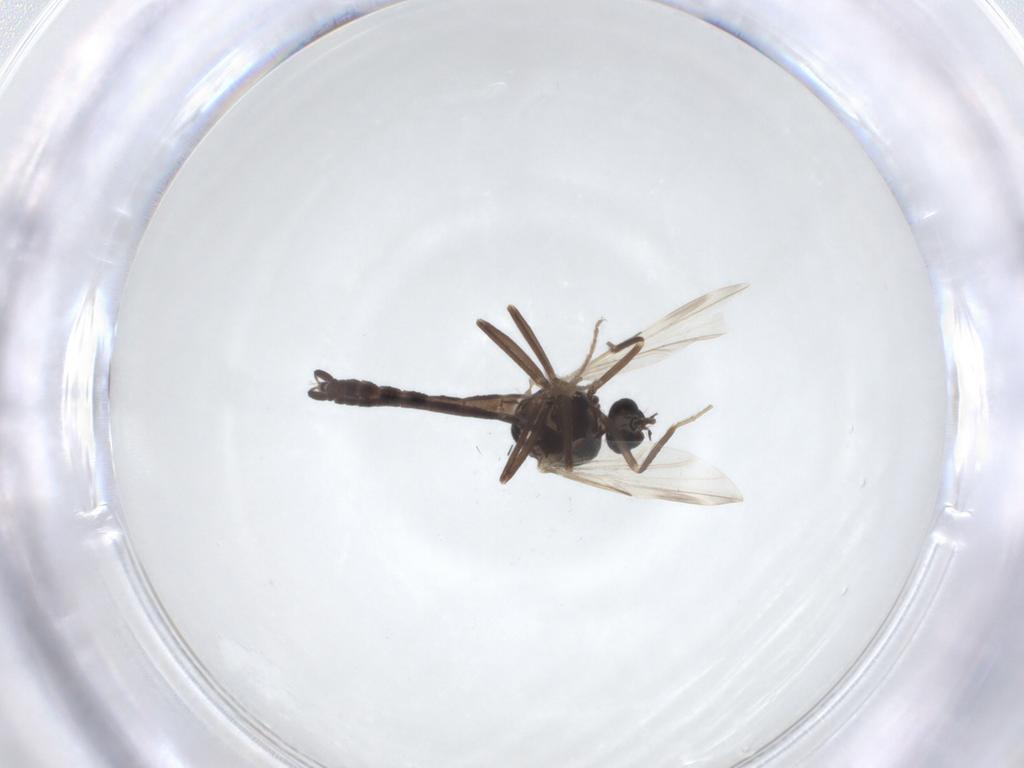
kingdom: Animalia
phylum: Arthropoda
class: Insecta
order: Diptera
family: Ceratopogonidae
